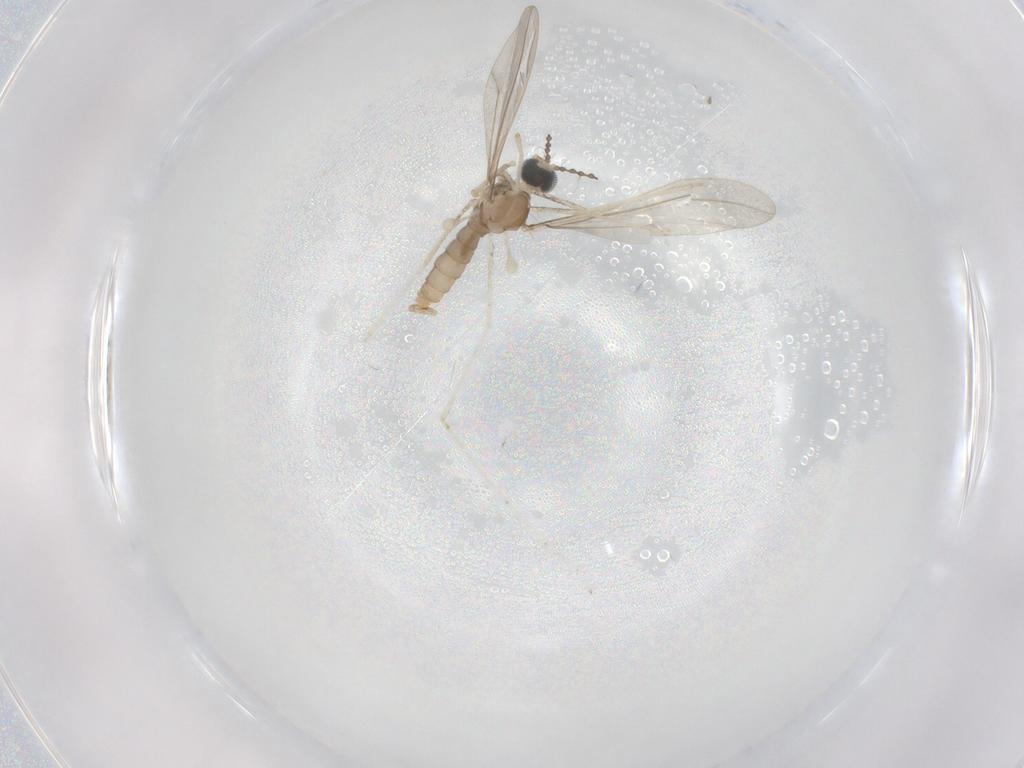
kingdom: Animalia
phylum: Arthropoda
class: Insecta
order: Diptera
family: Cecidomyiidae
